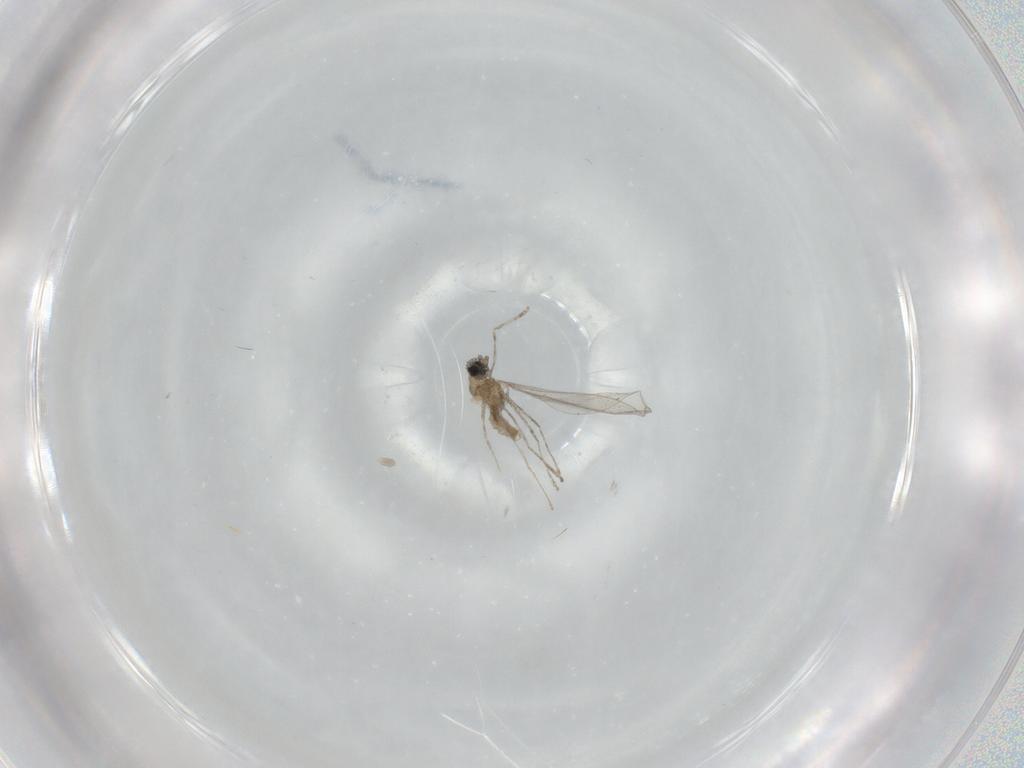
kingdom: Animalia
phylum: Arthropoda
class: Insecta
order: Diptera
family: Cecidomyiidae
